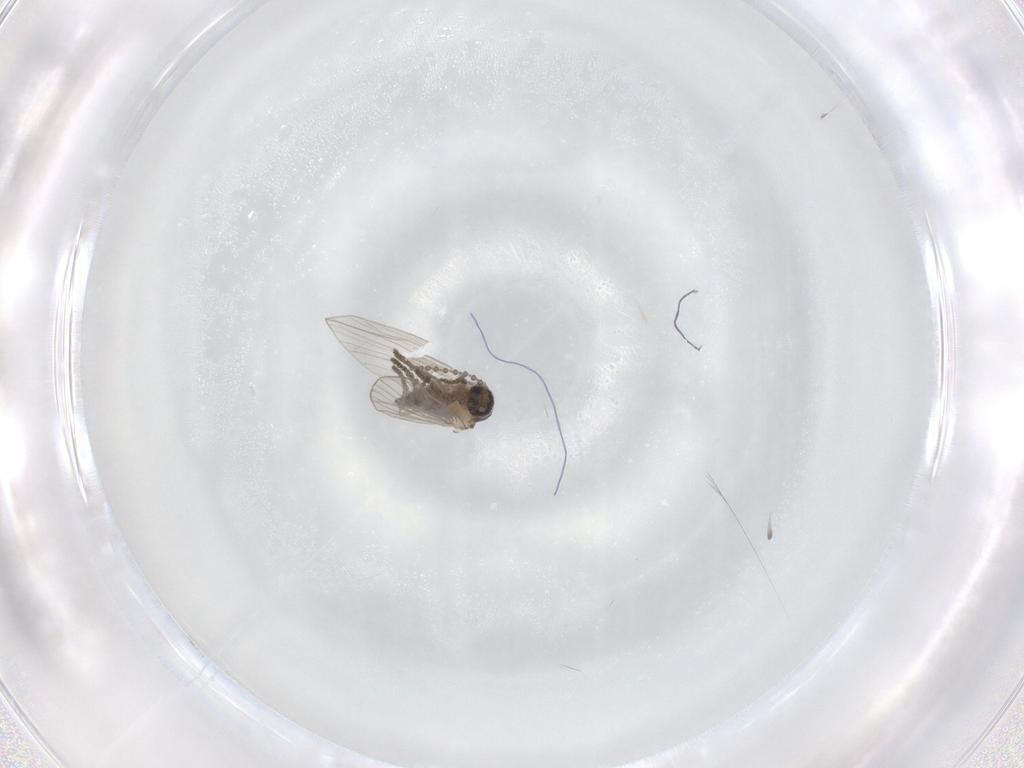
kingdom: Animalia
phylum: Arthropoda
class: Insecta
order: Diptera
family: Psychodidae
